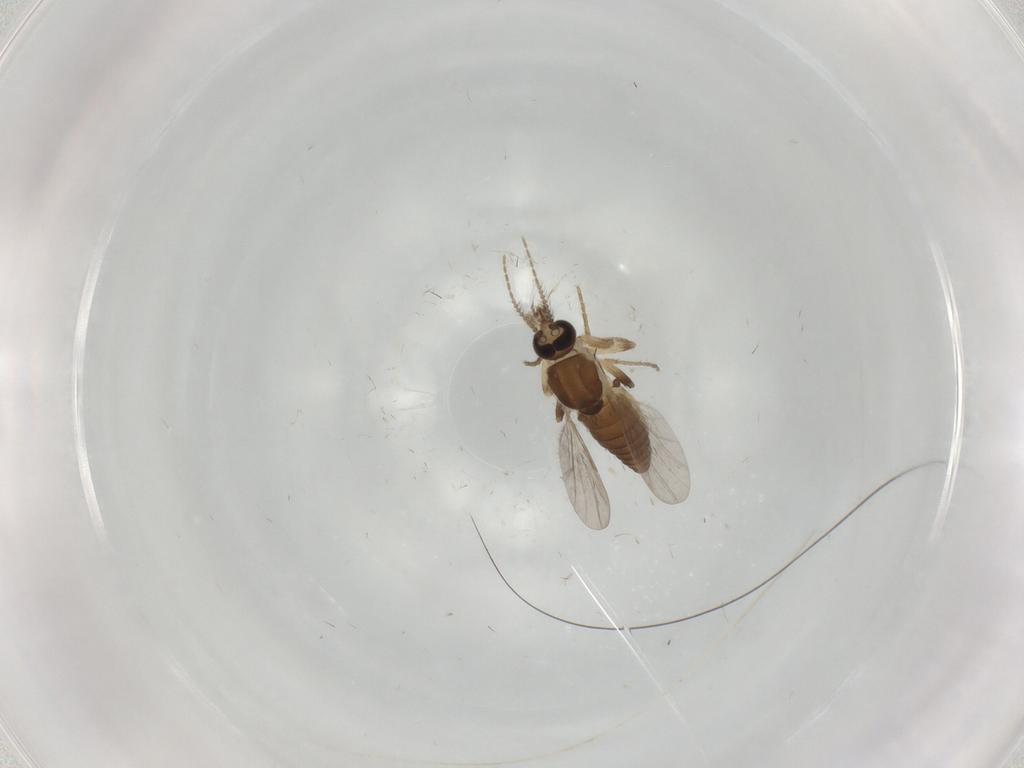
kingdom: Animalia
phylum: Arthropoda
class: Insecta
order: Diptera
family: Ceratopogonidae
